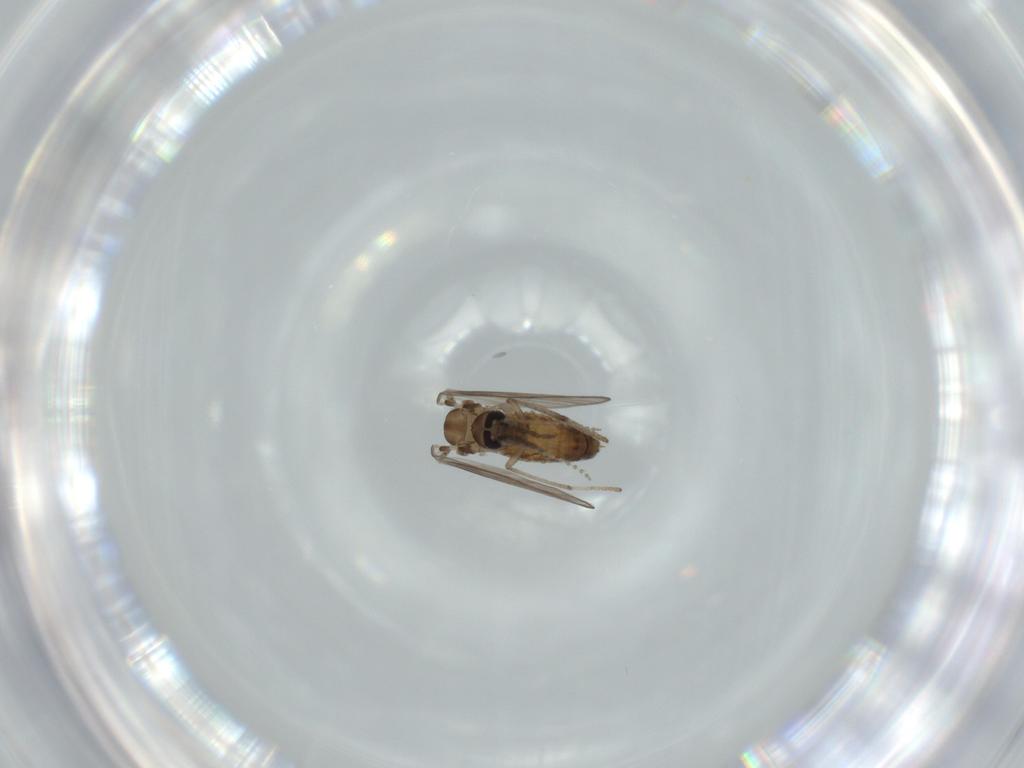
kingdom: Animalia
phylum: Arthropoda
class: Insecta
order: Diptera
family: Psychodidae
